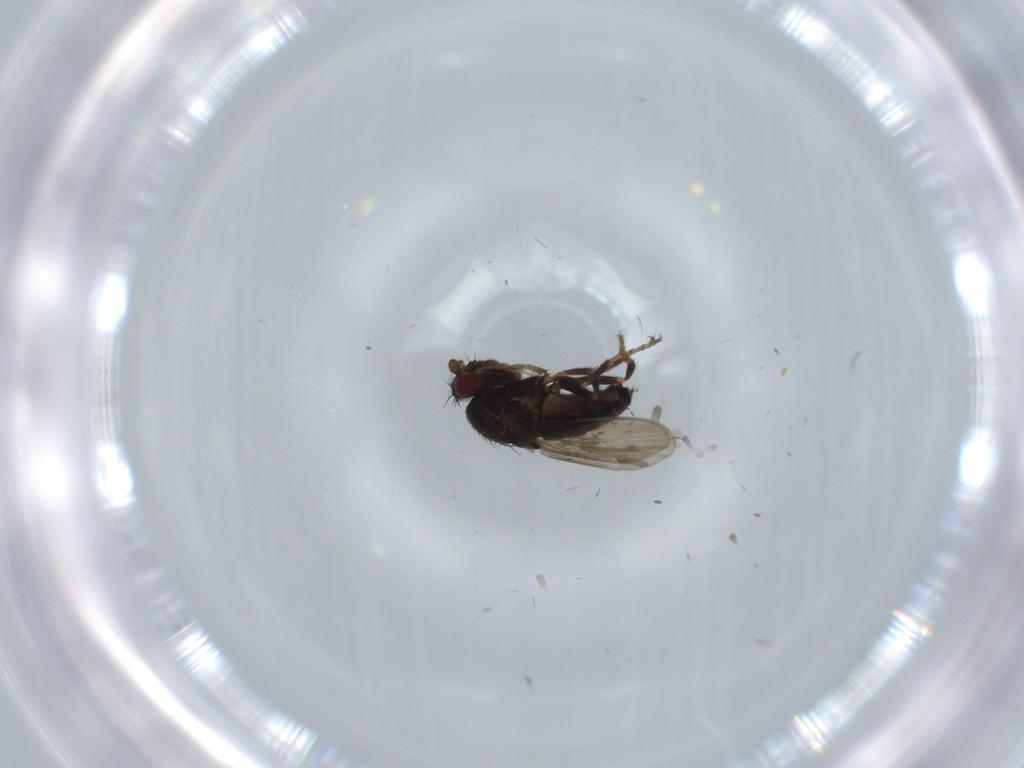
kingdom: Animalia
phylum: Arthropoda
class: Insecta
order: Diptera
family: Sphaeroceridae
